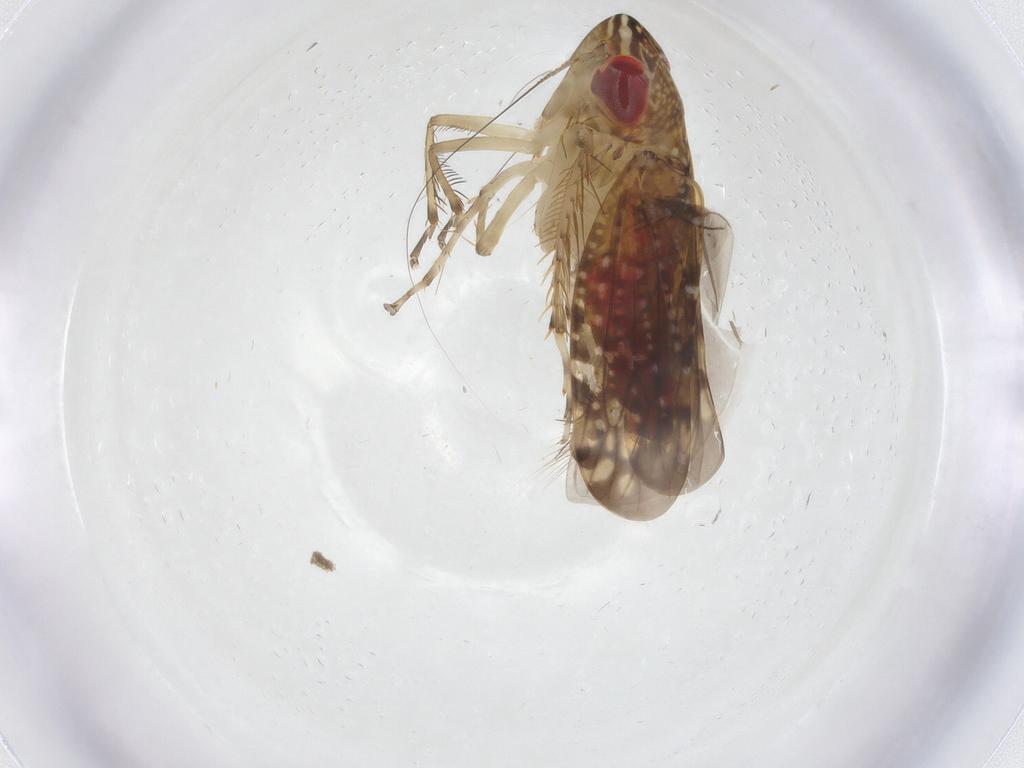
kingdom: Animalia
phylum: Arthropoda
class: Insecta
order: Hemiptera
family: Cicadellidae
